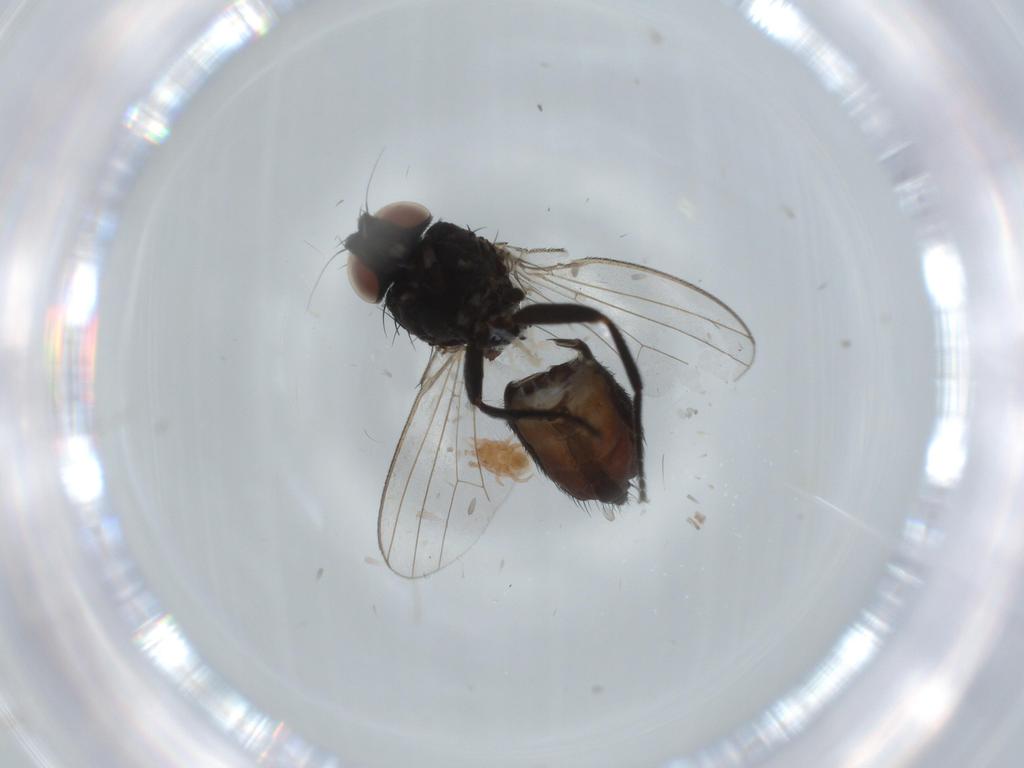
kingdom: Animalia
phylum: Arthropoda
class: Insecta
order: Diptera
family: Milichiidae
